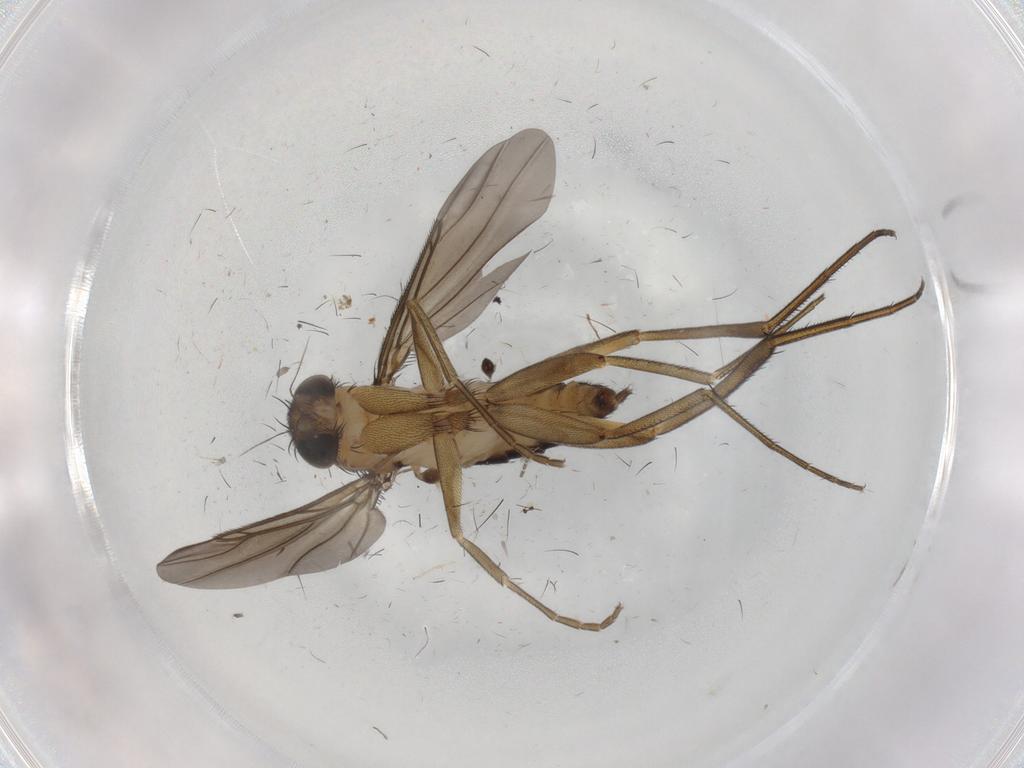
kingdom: Animalia
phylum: Arthropoda
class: Insecta
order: Diptera
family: Phoridae
